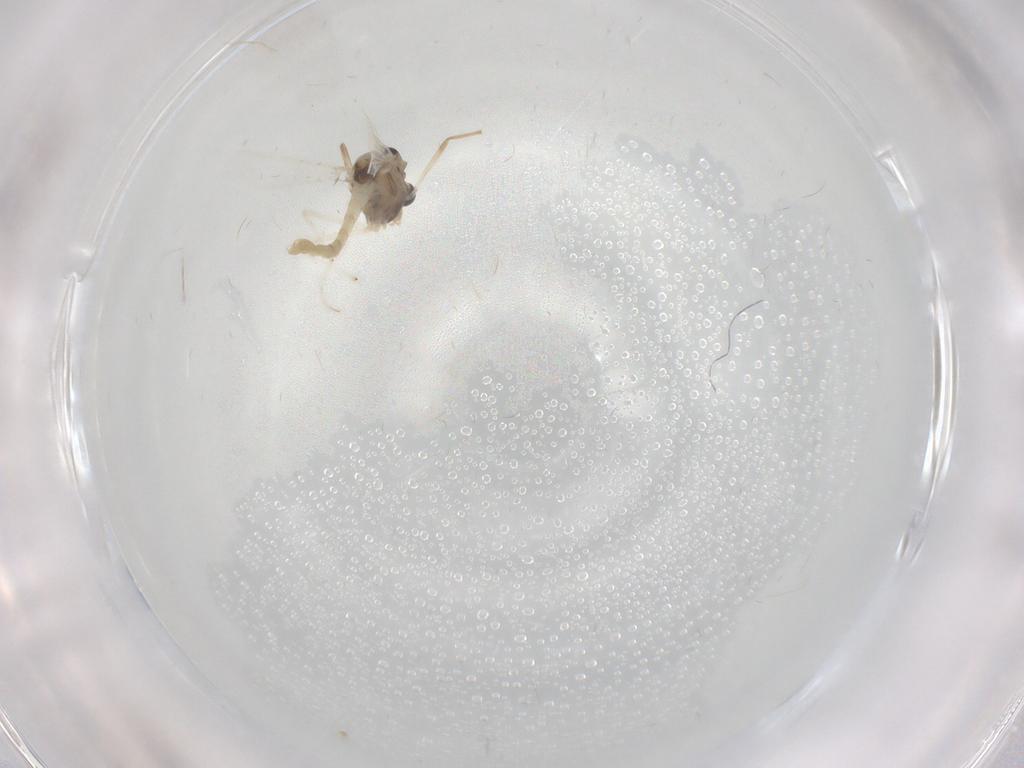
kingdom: Animalia
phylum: Arthropoda
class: Insecta
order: Diptera
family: Chironomidae
